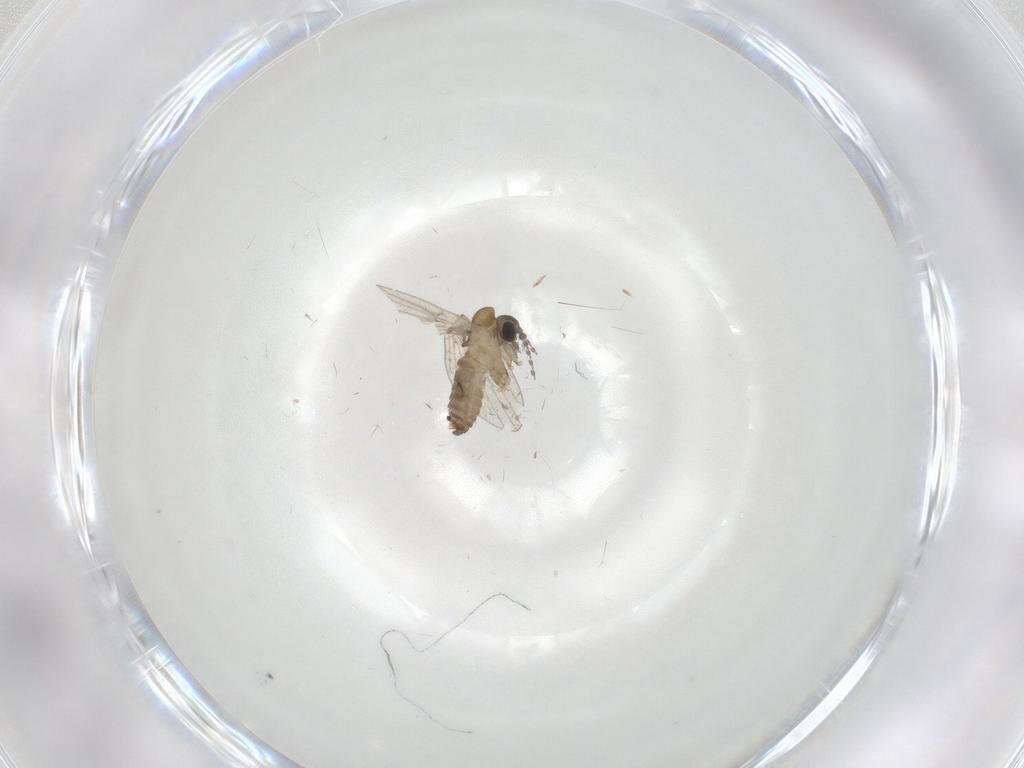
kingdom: Animalia
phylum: Arthropoda
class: Insecta
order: Diptera
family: Psychodidae
